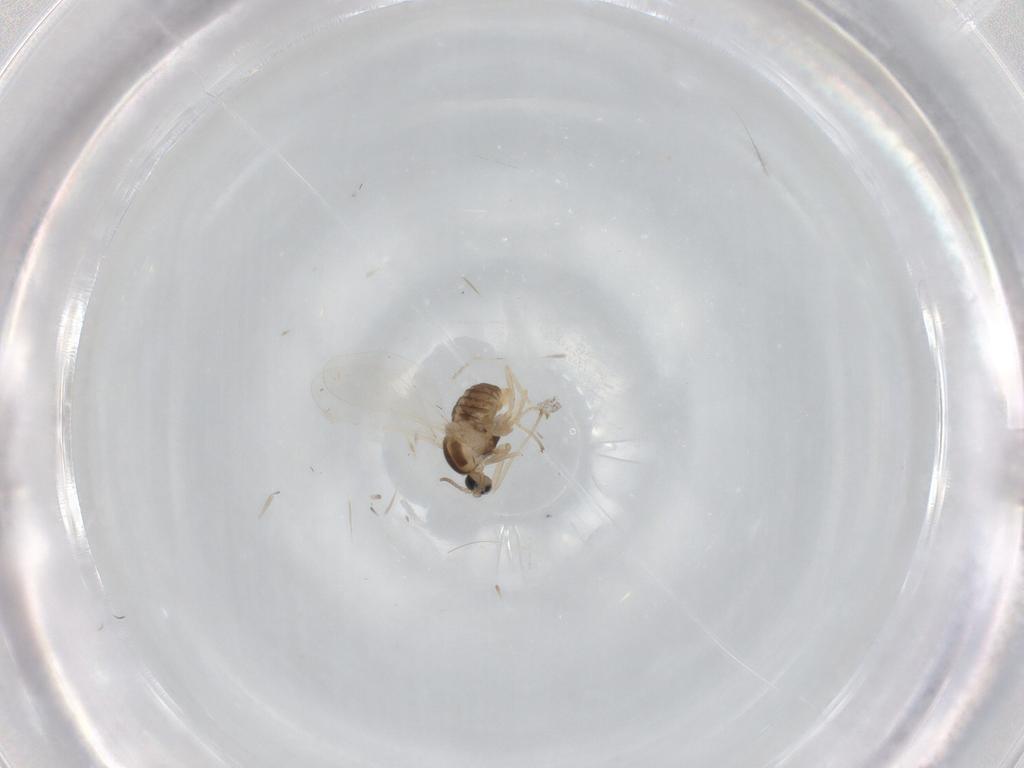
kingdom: Animalia
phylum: Arthropoda
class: Insecta
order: Diptera
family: Cecidomyiidae
